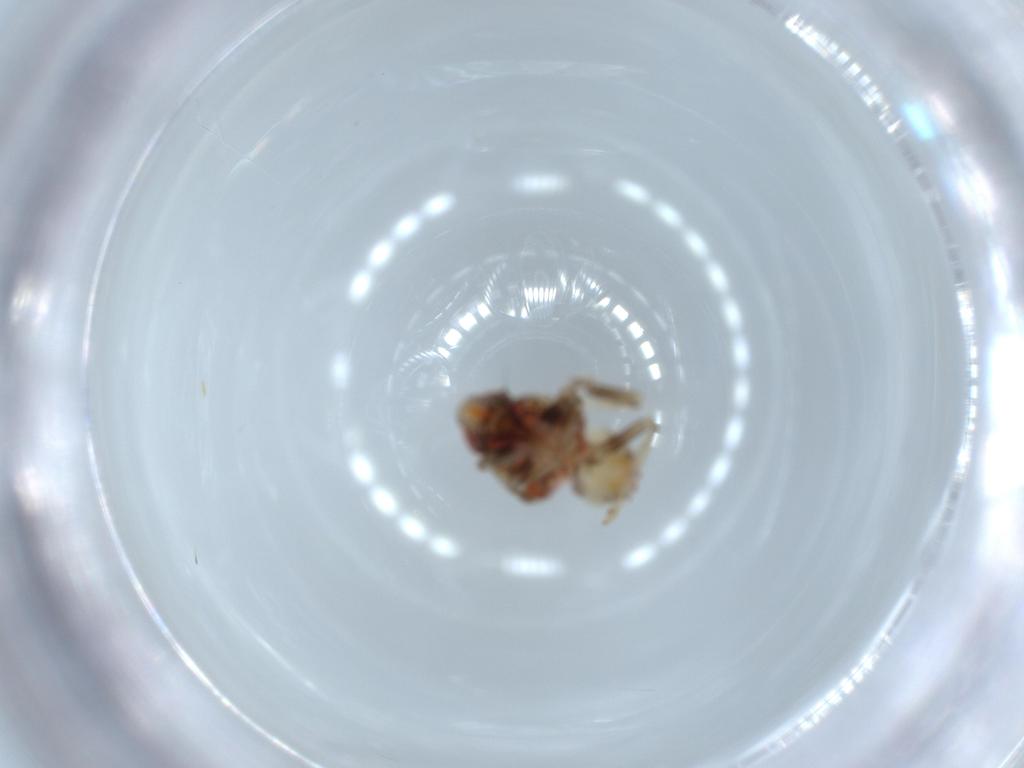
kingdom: Animalia
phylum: Arthropoda
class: Insecta
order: Hemiptera
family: Issidae
